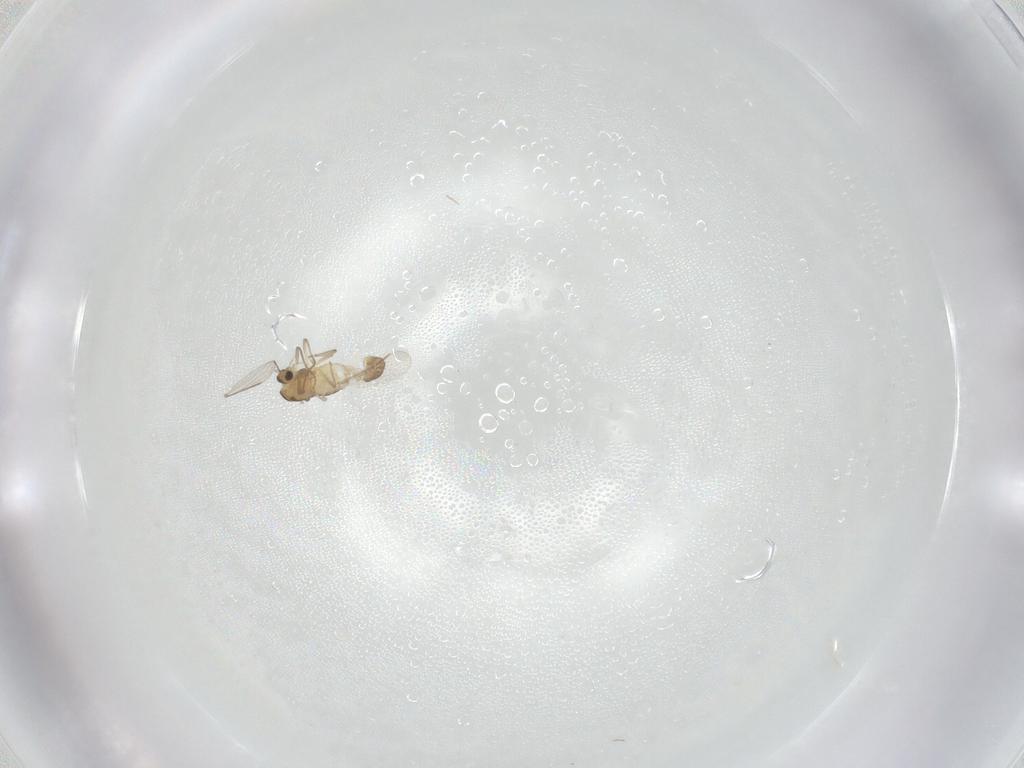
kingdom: Animalia
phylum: Arthropoda
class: Insecta
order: Diptera
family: Chironomidae
